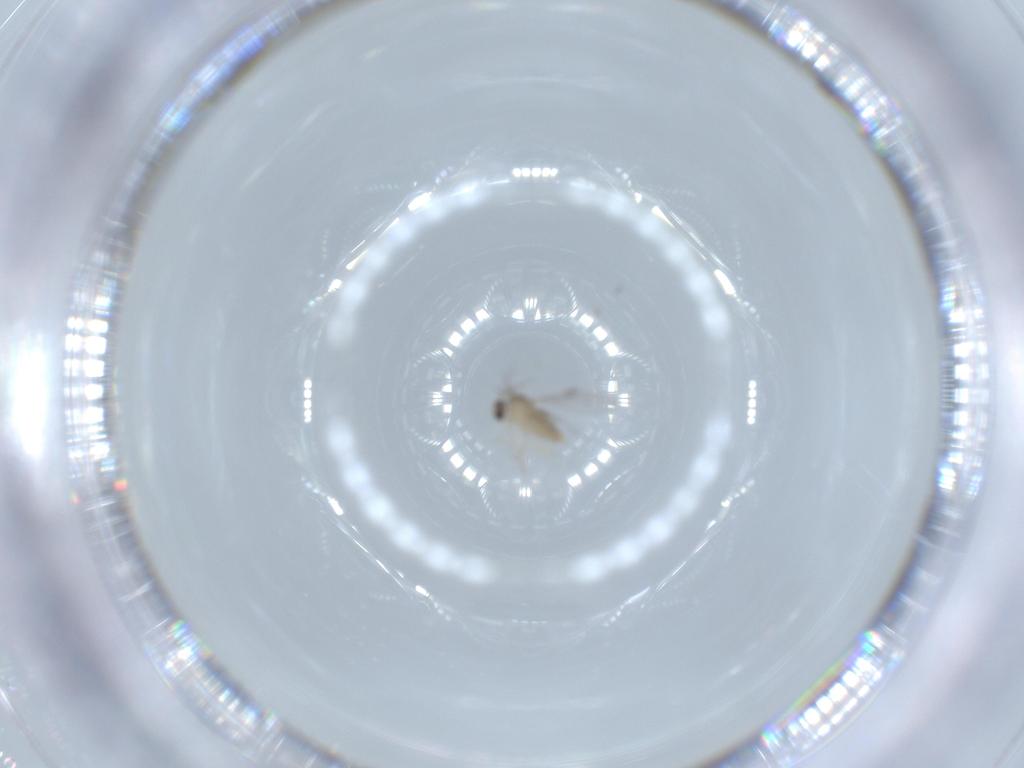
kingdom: Animalia
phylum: Arthropoda
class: Insecta
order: Diptera
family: Cecidomyiidae
